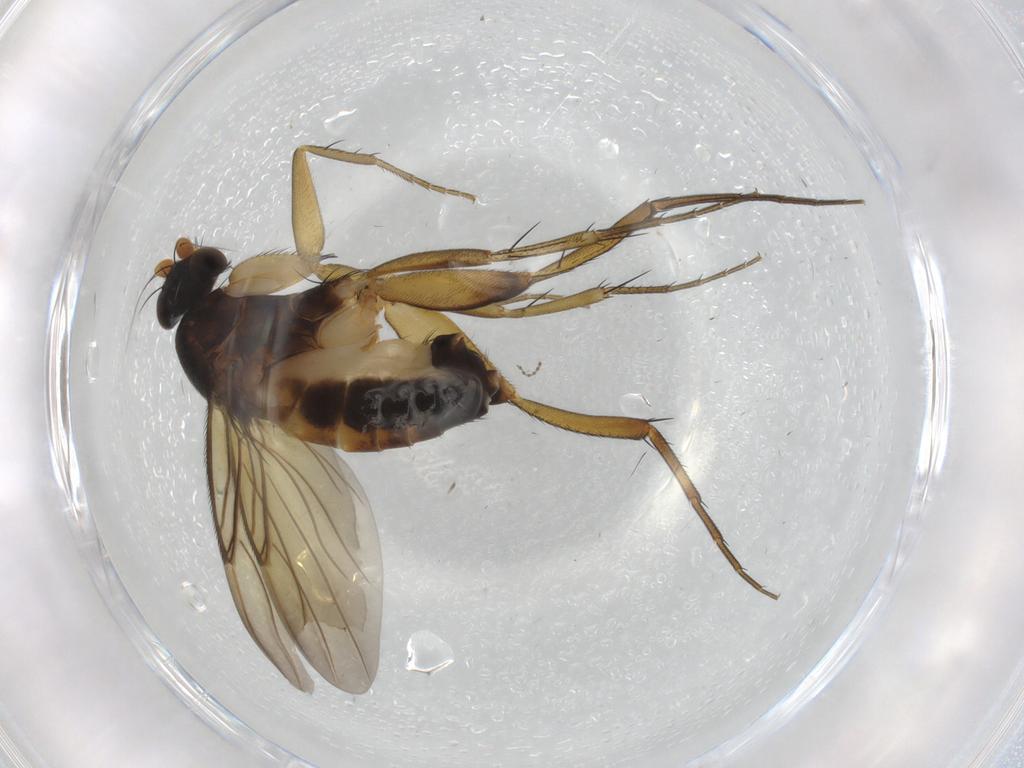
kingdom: Animalia
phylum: Arthropoda
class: Insecta
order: Diptera
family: Phoridae
